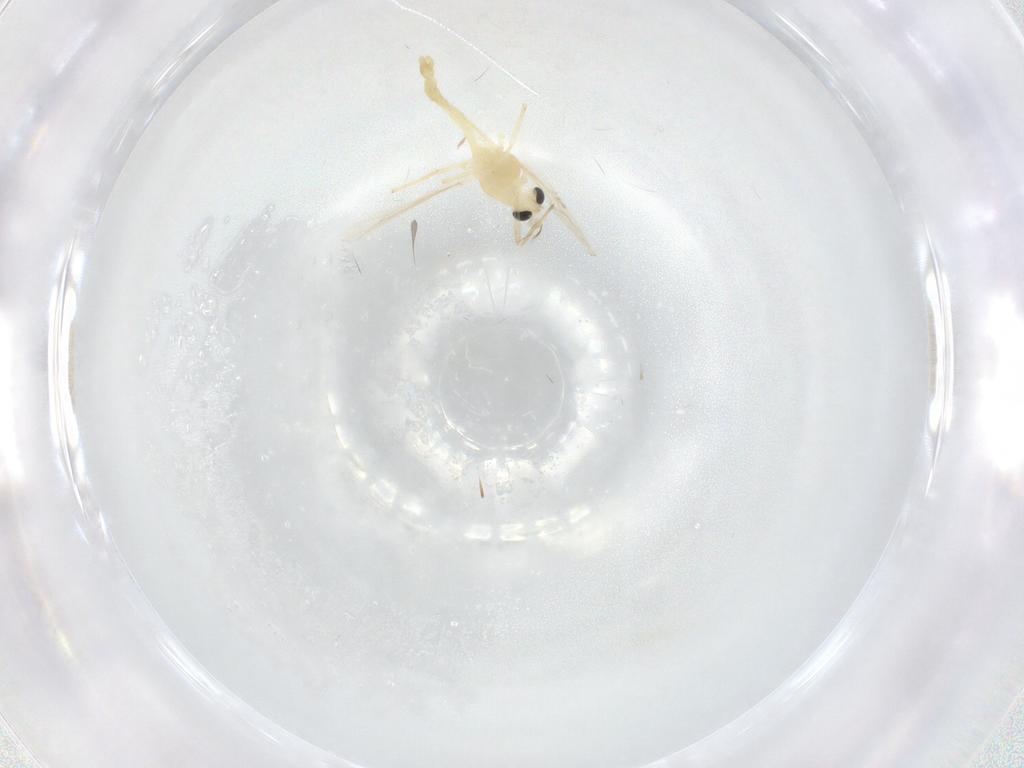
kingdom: Animalia
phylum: Arthropoda
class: Insecta
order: Diptera
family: Chironomidae
